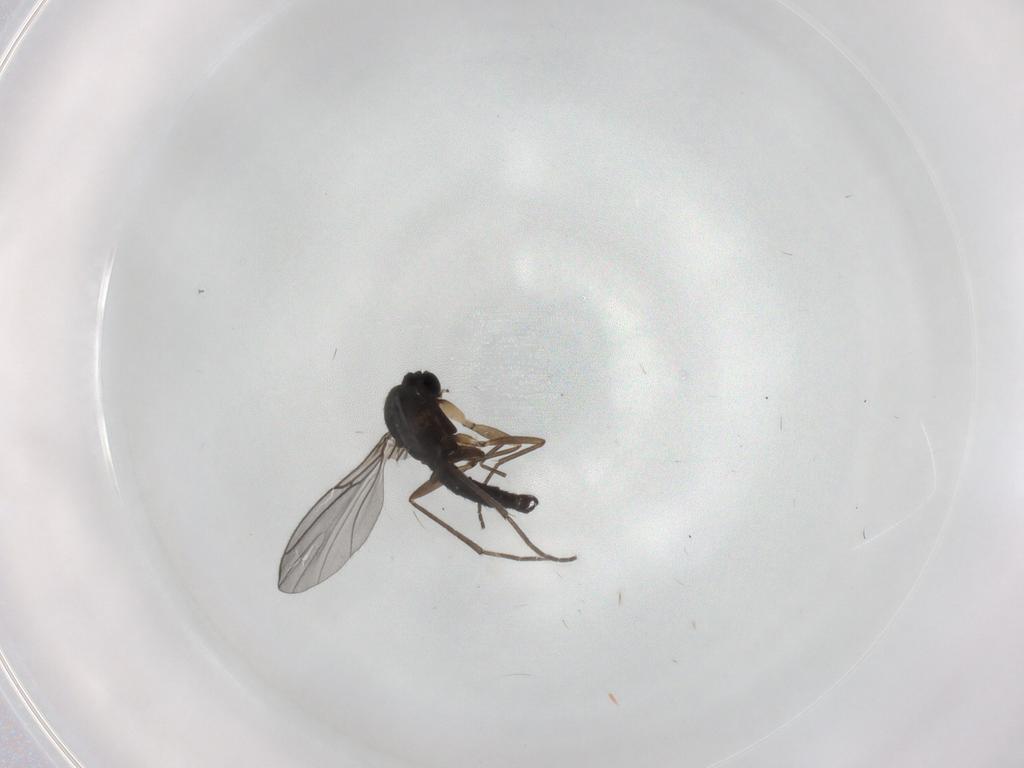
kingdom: Animalia
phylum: Arthropoda
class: Insecta
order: Diptera
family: Sciaridae
